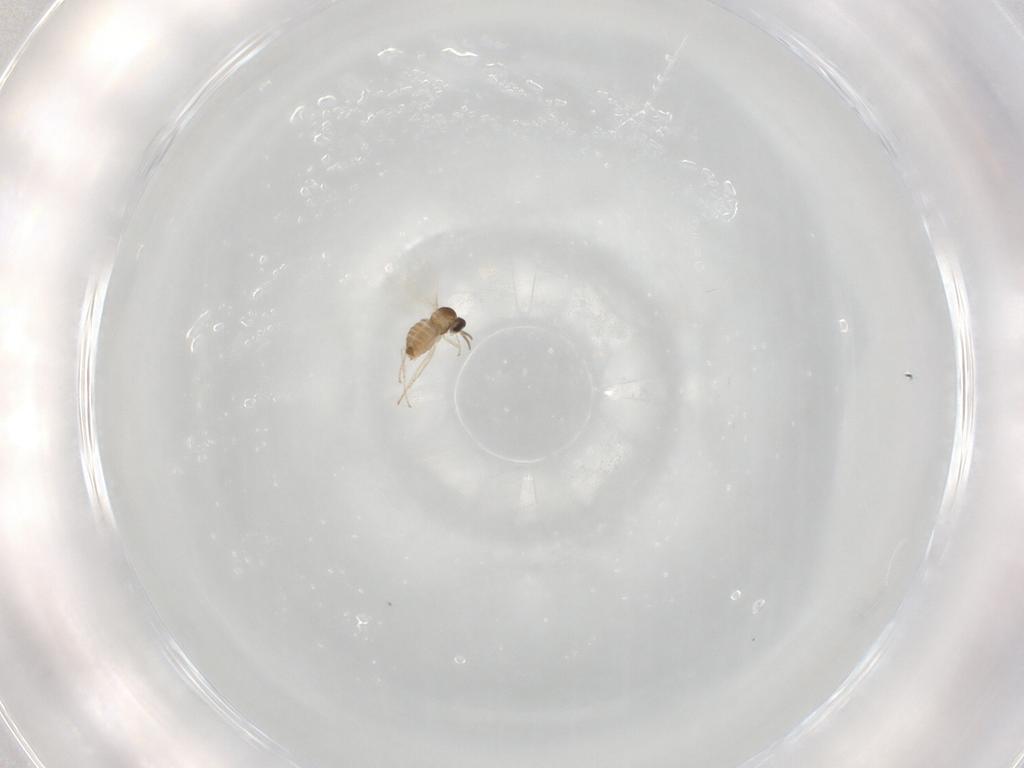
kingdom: Animalia
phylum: Arthropoda
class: Insecta
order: Diptera
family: Cecidomyiidae
